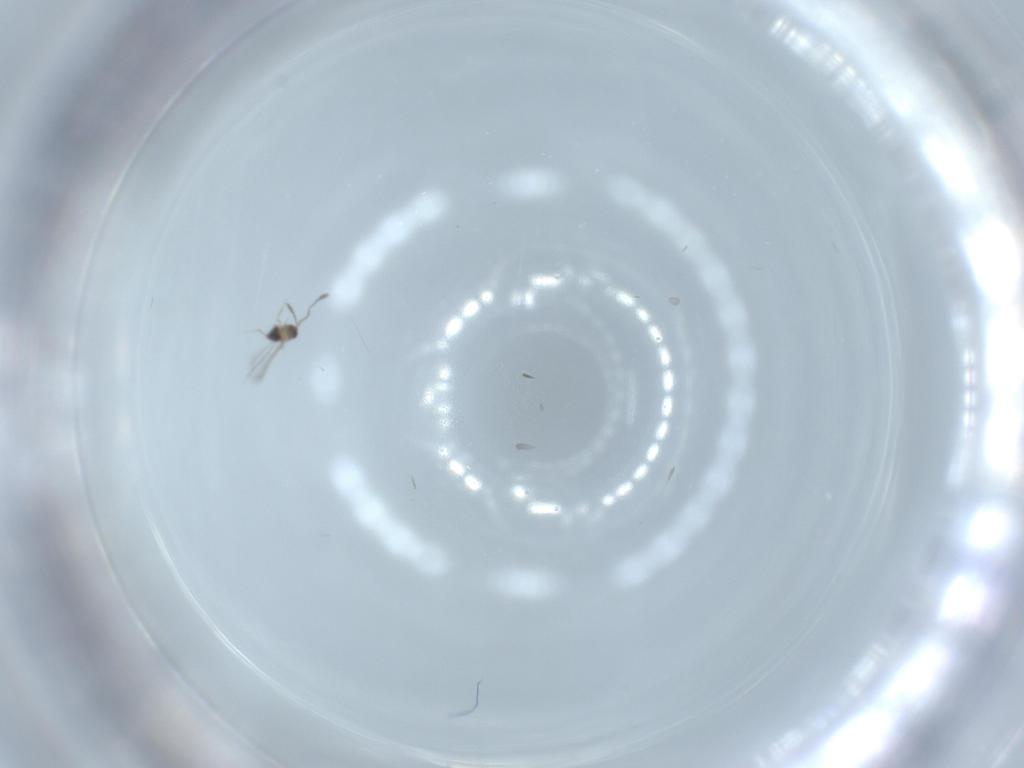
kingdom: Animalia
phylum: Arthropoda
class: Insecta
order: Hymenoptera
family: Mymaridae
